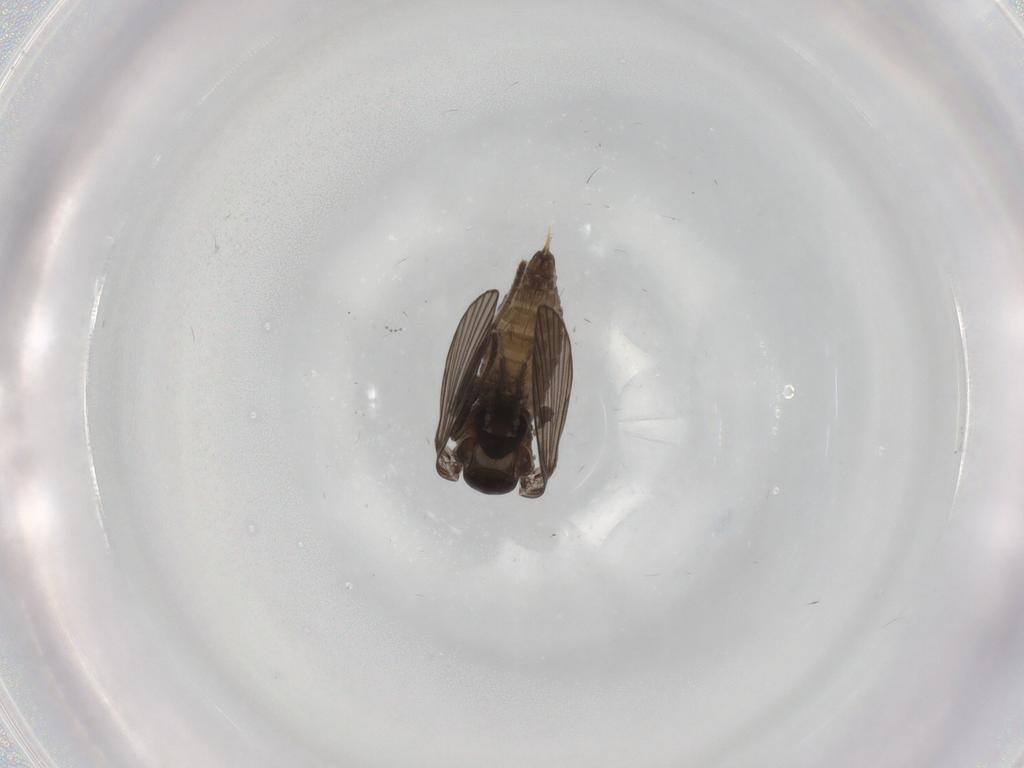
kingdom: Animalia
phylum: Arthropoda
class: Insecta
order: Diptera
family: Psychodidae
